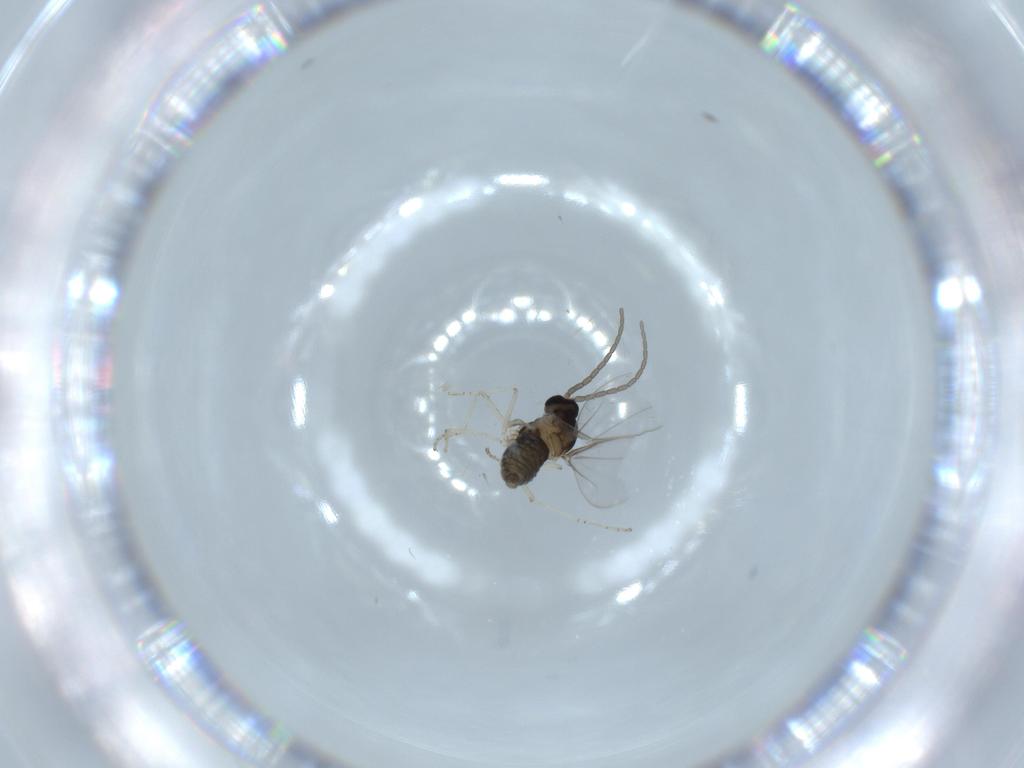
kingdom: Animalia
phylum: Arthropoda
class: Insecta
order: Diptera
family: Cecidomyiidae
